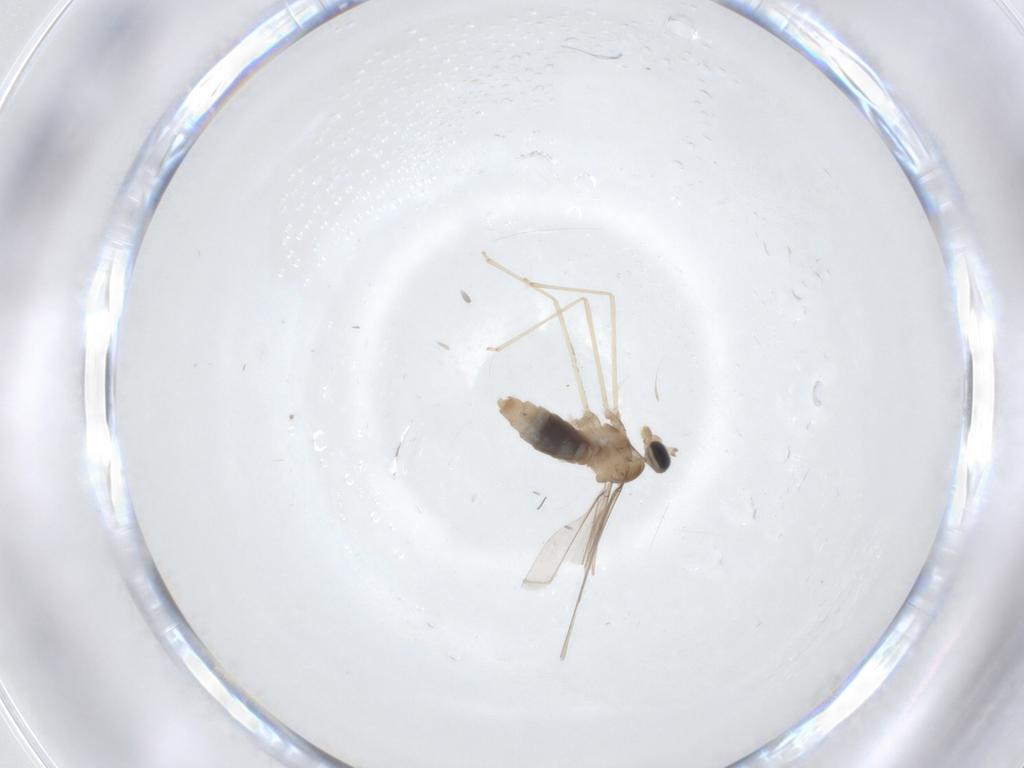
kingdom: Animalia
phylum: Arthropoda
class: Insecta
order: Diptera
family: Cecidomyiidae
